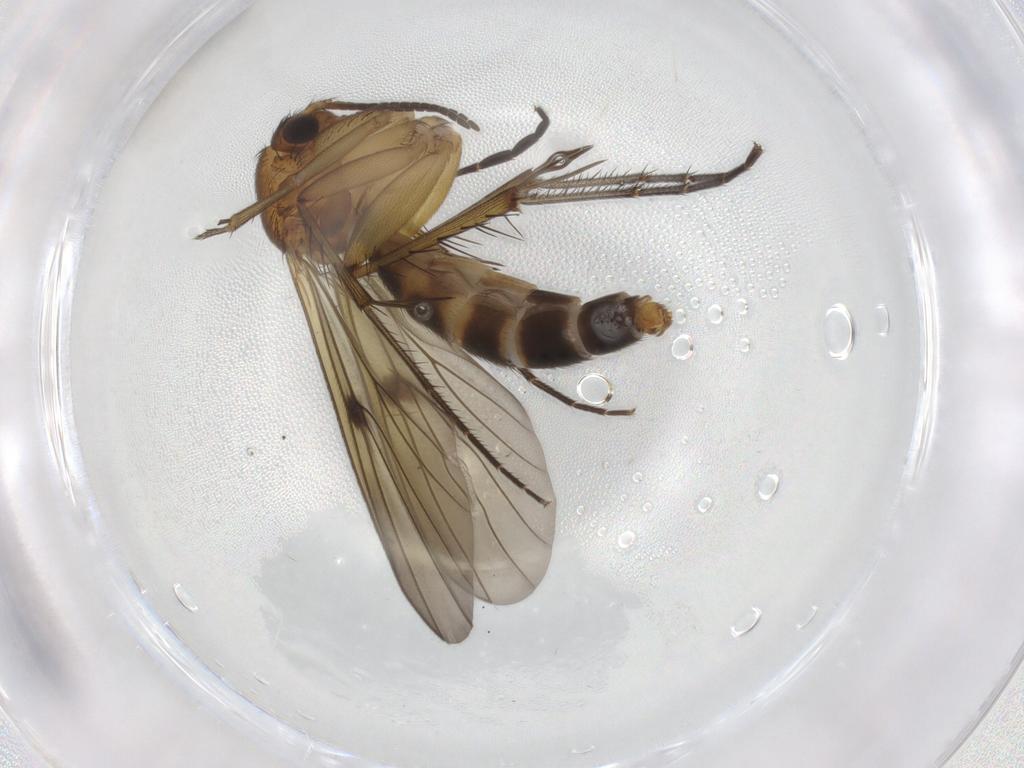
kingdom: Animalia
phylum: Arthropoda
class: Insecta
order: Diptera
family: Mycetophilidae
